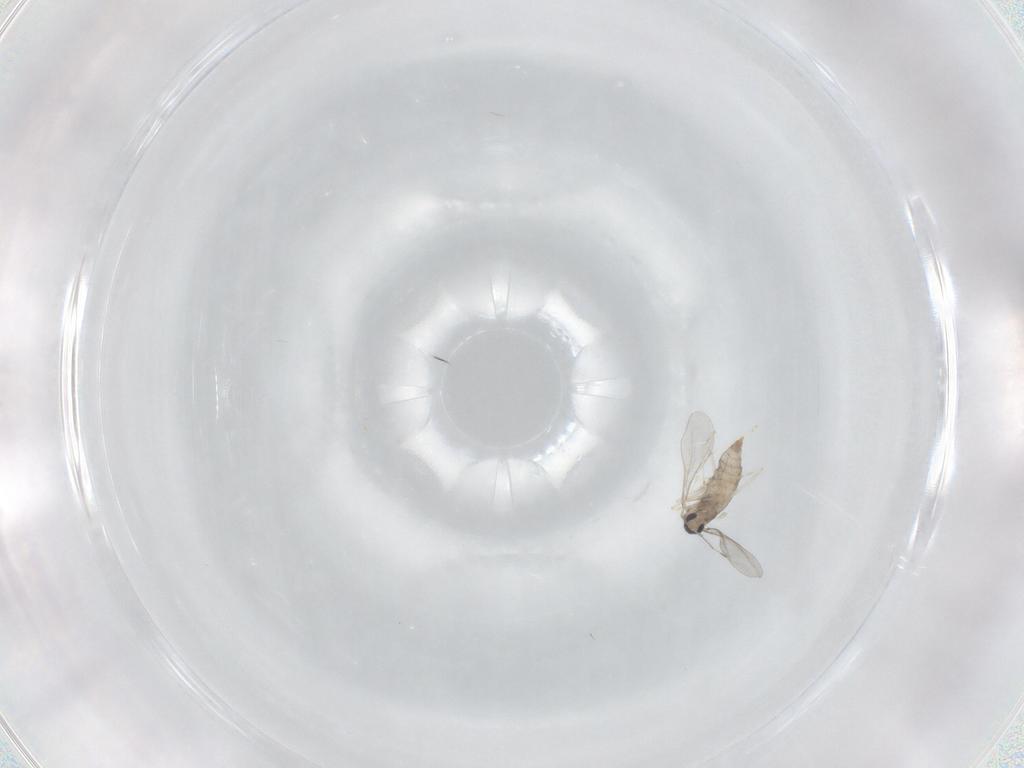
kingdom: Animalia
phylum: Arthropoda
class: Insecta
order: Diptera
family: Cecidomyiidae
